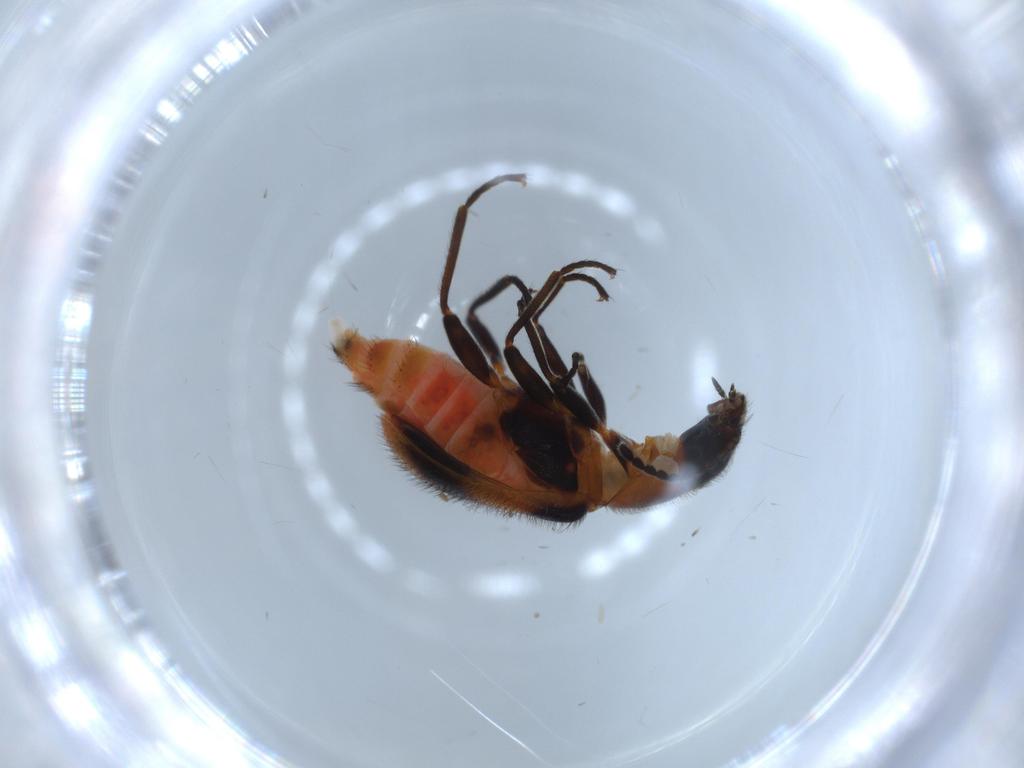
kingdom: Animalia
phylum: Arthropoda
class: Insecta
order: Coleoptera
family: Melyridae
